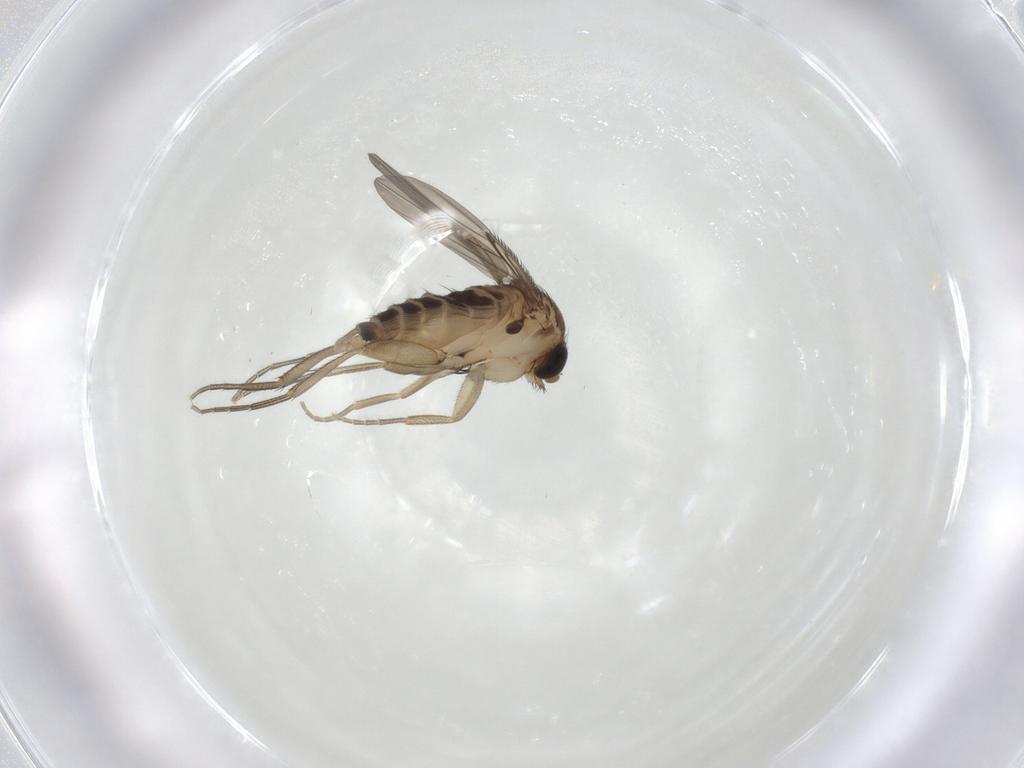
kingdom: Animalia
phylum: Arthropoda
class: Insecta
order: Diptera
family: Phoridae
